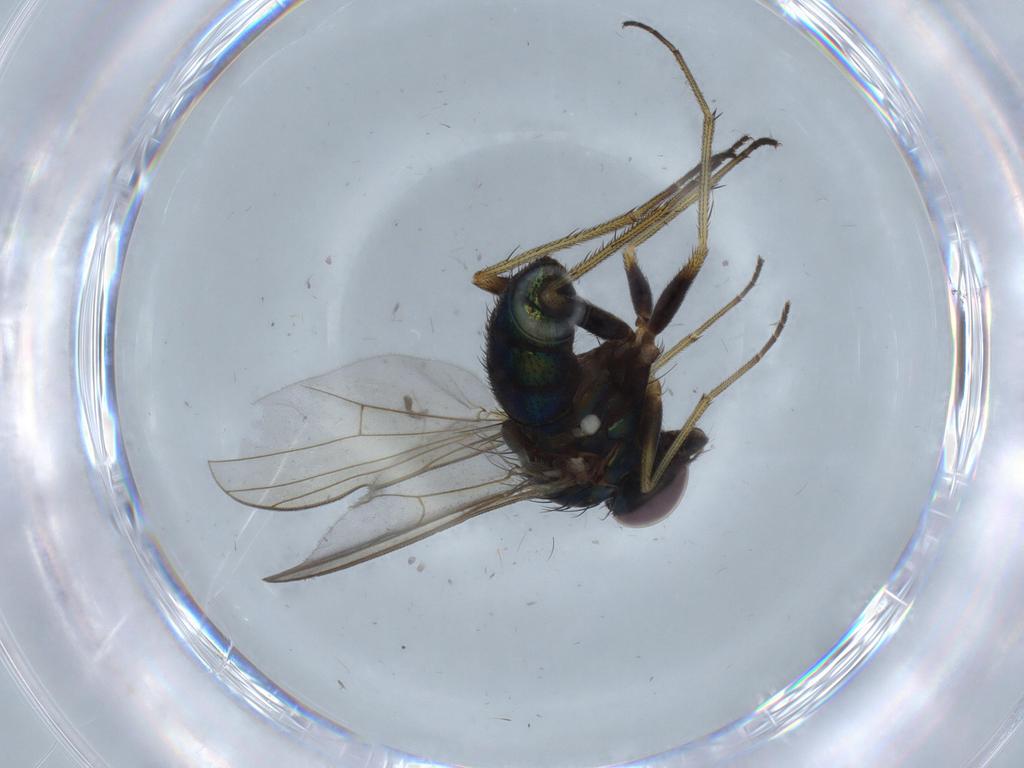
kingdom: Animalia
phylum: Arthropoda
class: Insecta
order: Diptera
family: Dolichopodidae
